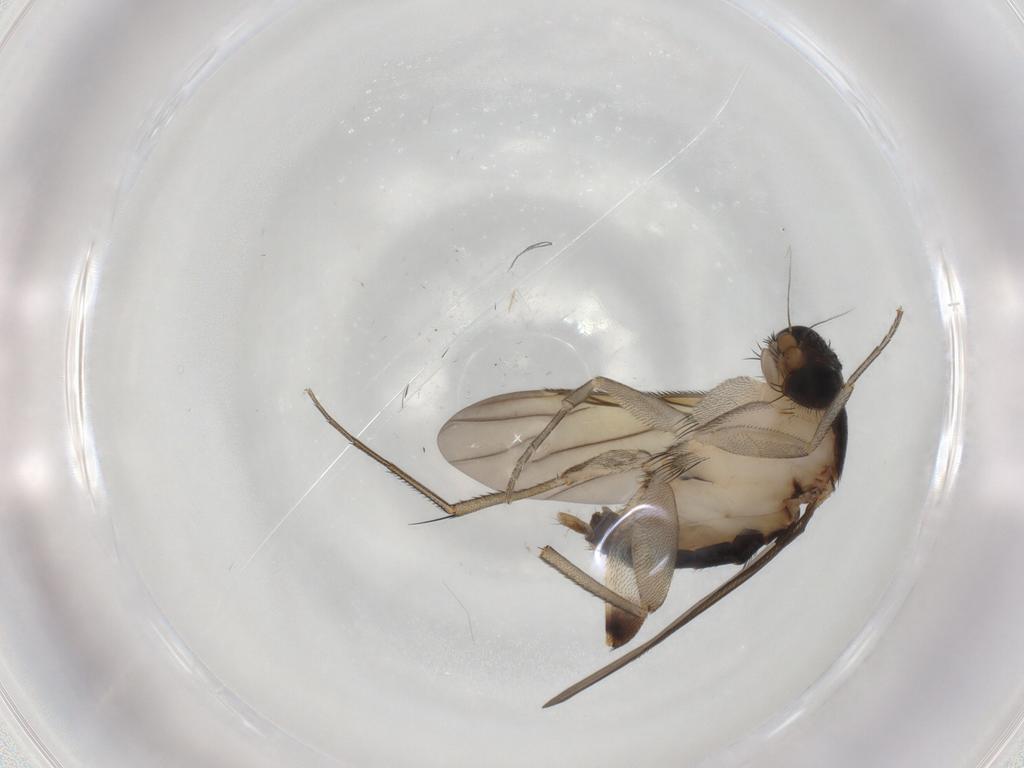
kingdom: Animalia
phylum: Arthropoda
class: Insecta
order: Diptera
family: Phoridae
